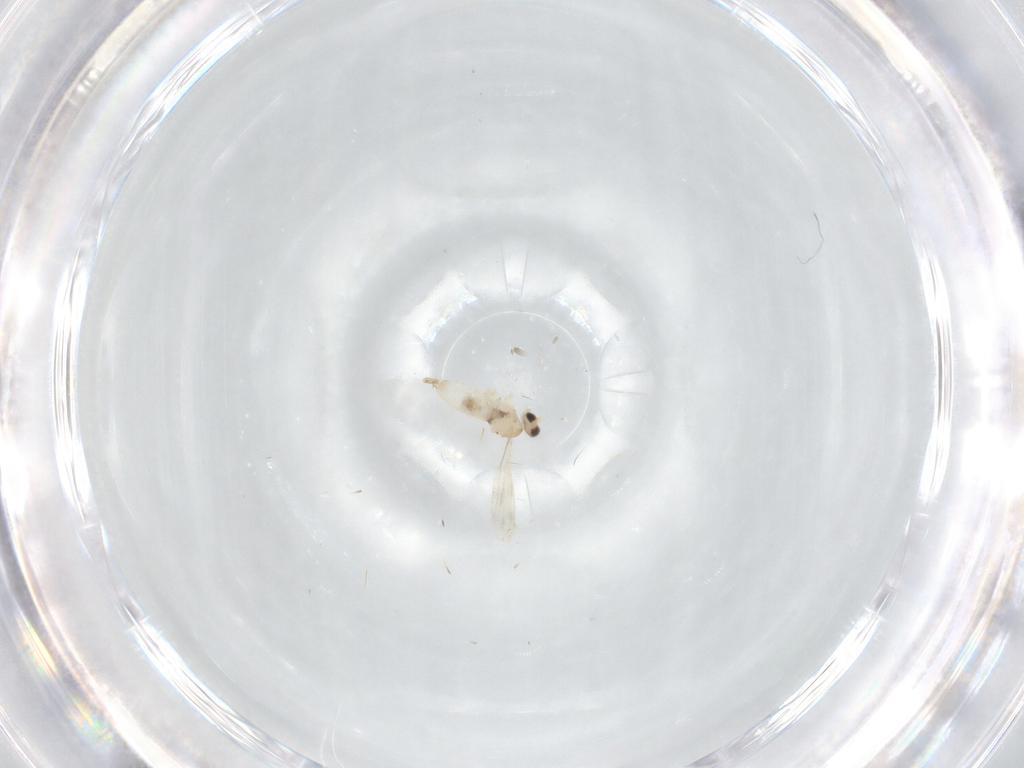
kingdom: Animalia
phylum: Arthropoda
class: Insecta
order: Diptera
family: Cecidomyiidae
